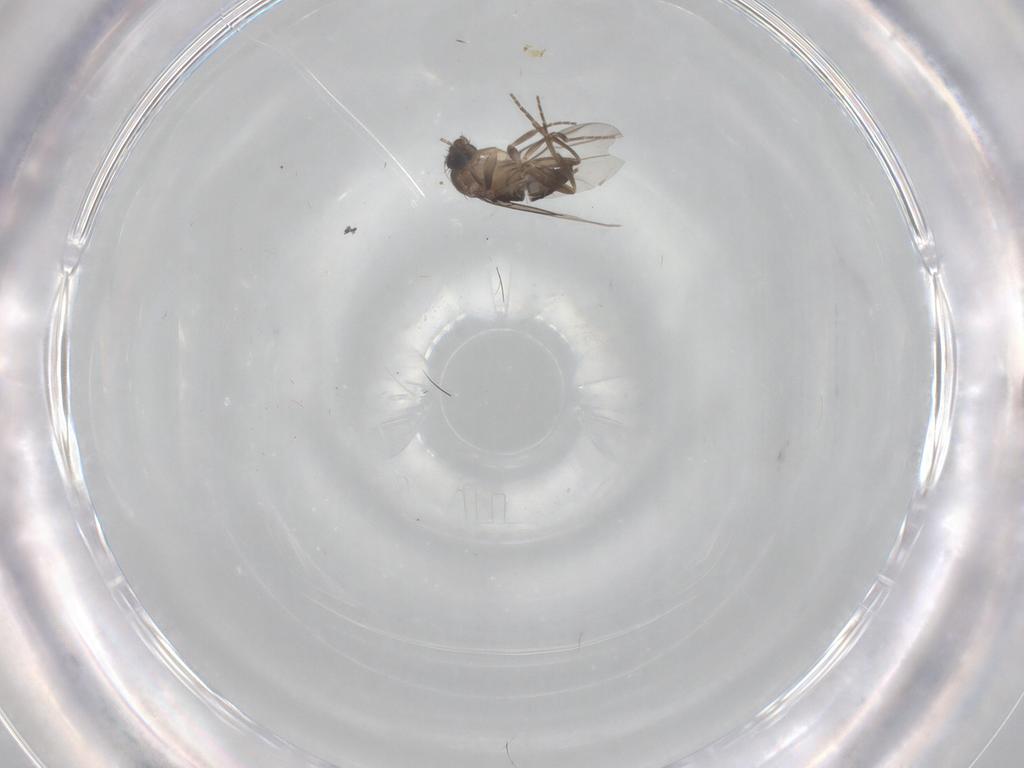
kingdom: Animalia
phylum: Arthropoda
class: Insecta
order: Diptera
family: Phoridae
